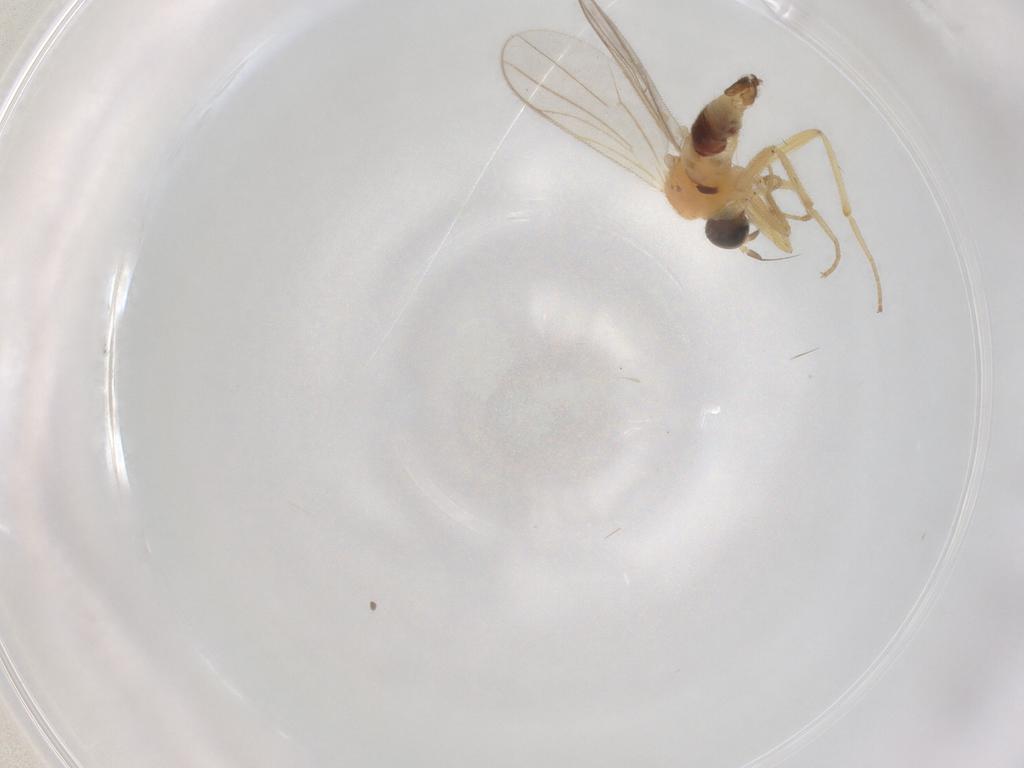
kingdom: Animalia
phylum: Arthropoda
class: Insecta
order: Diptera
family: Hybotidae
